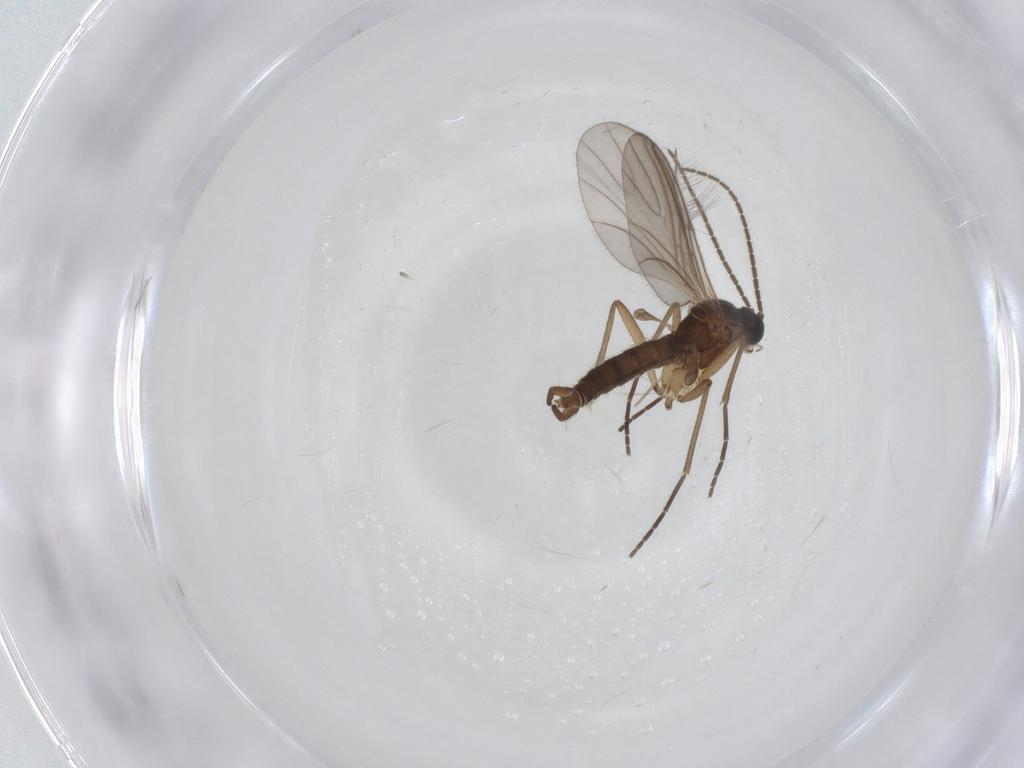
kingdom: Animalia
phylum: Arthropoda
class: Insecta
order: Diptera
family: Sciaridae
